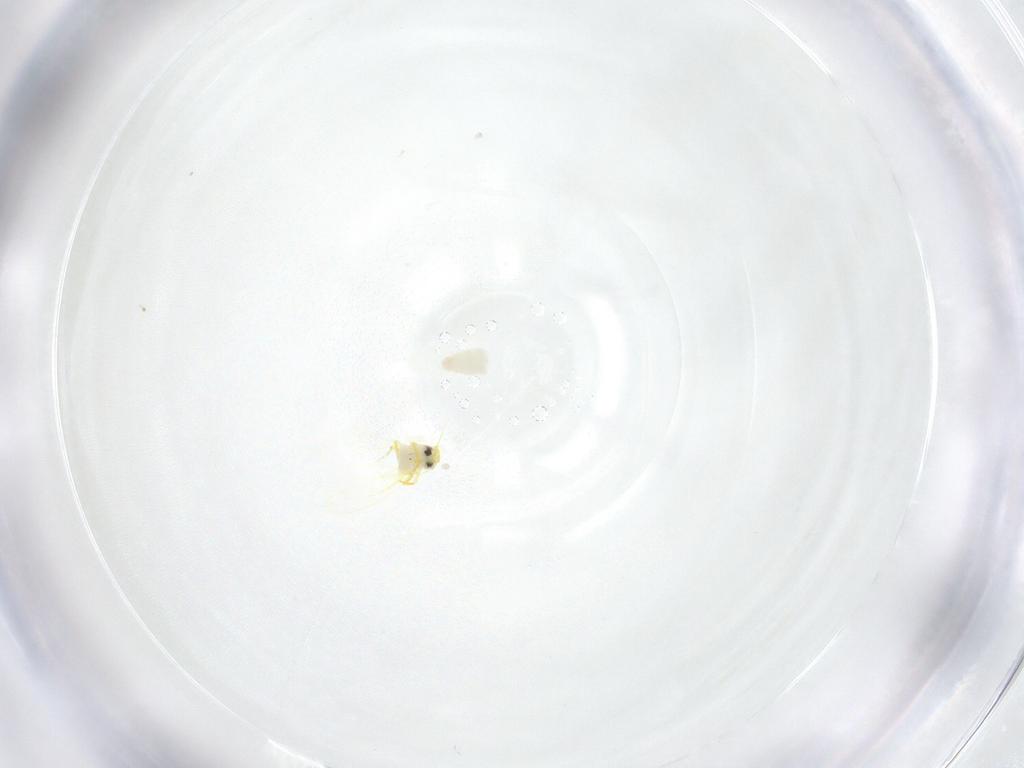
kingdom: Animalia
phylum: Arthropoda
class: Insecta
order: Hemiptera
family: Aleyrodidae
